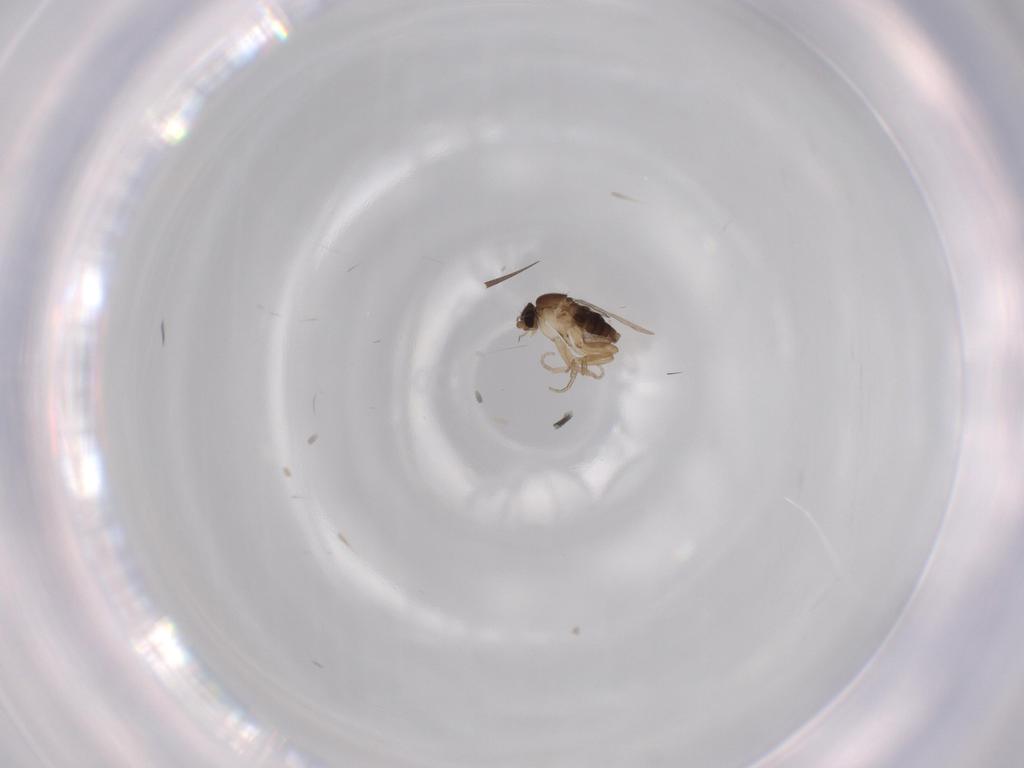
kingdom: Animalia
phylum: Arthropoda
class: Insecta
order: Diptera
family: Phoridae
